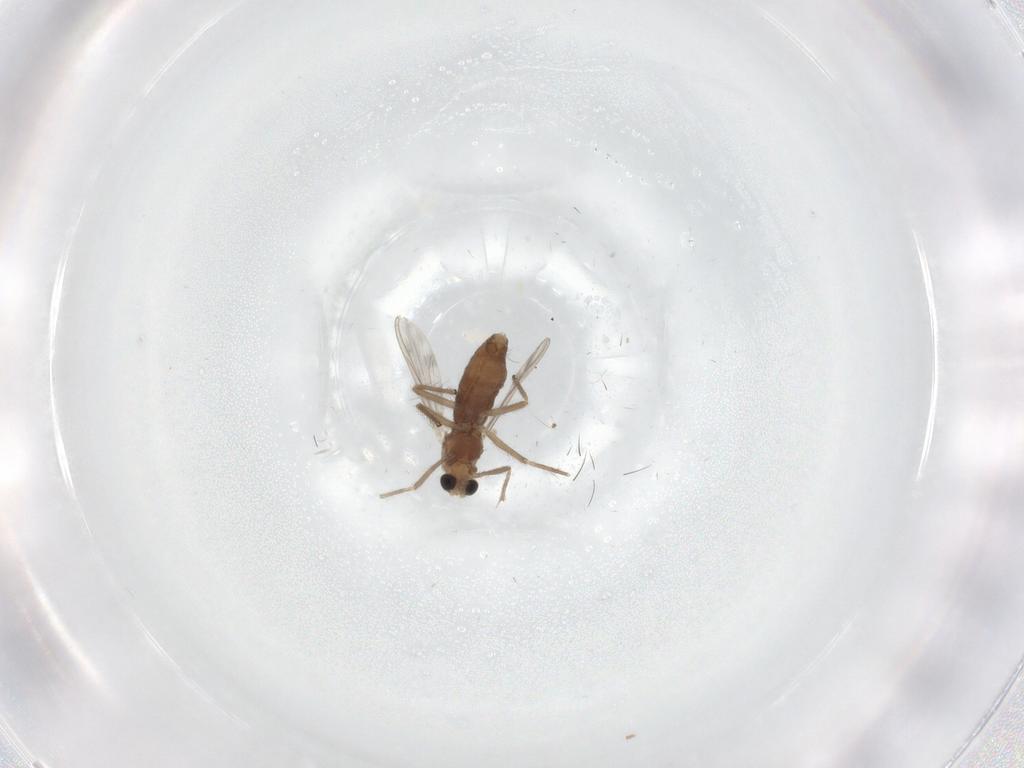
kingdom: Animalia
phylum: Arthropoda
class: Insecta
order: Diptera
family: Chironomidae
